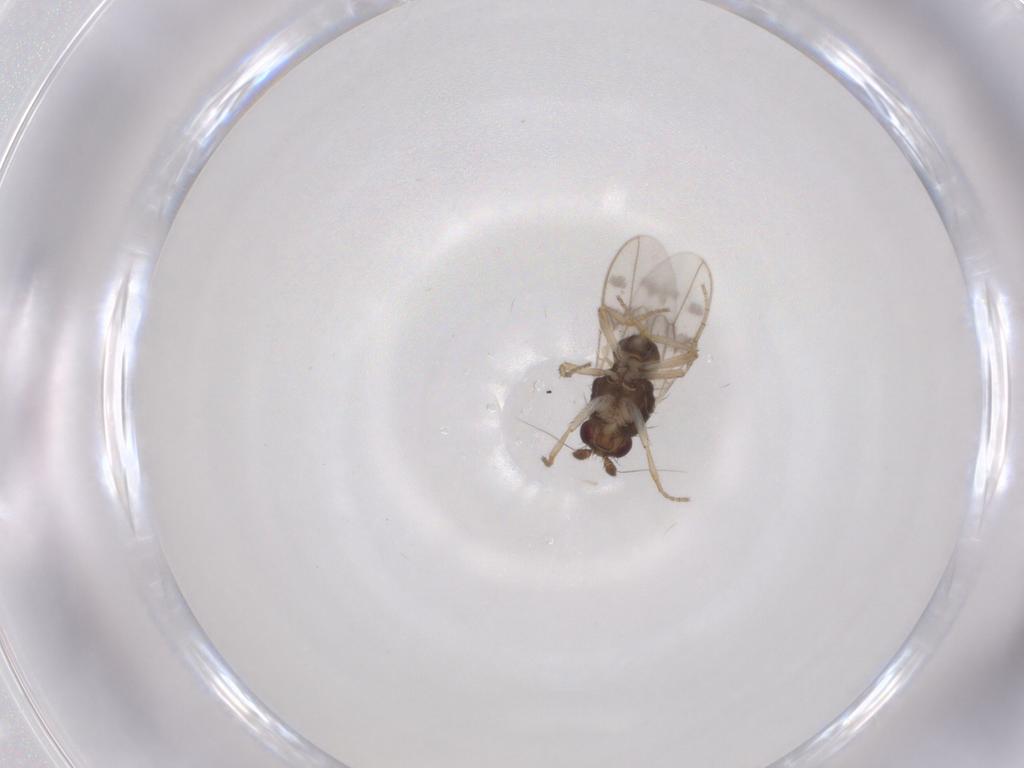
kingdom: Animalia
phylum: Arthropoda
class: Insecta
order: Diptera
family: Sphaeroceridae
